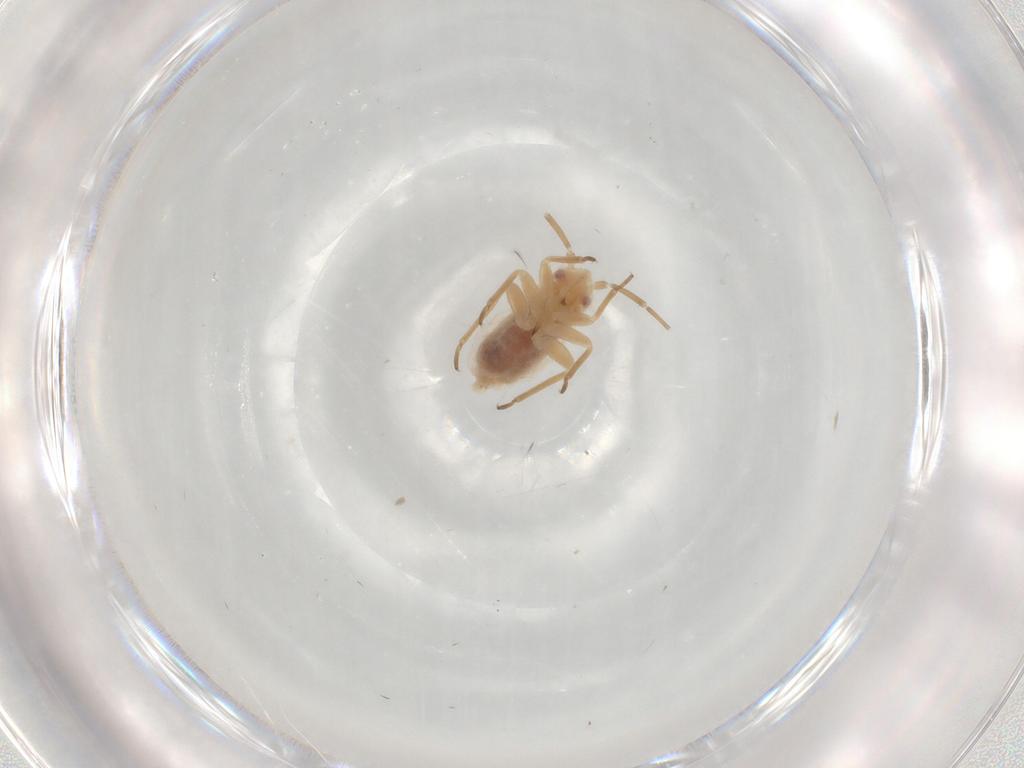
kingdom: Animalia
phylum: Arthropoda
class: Insecta
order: Hemiptera
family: Miridae
